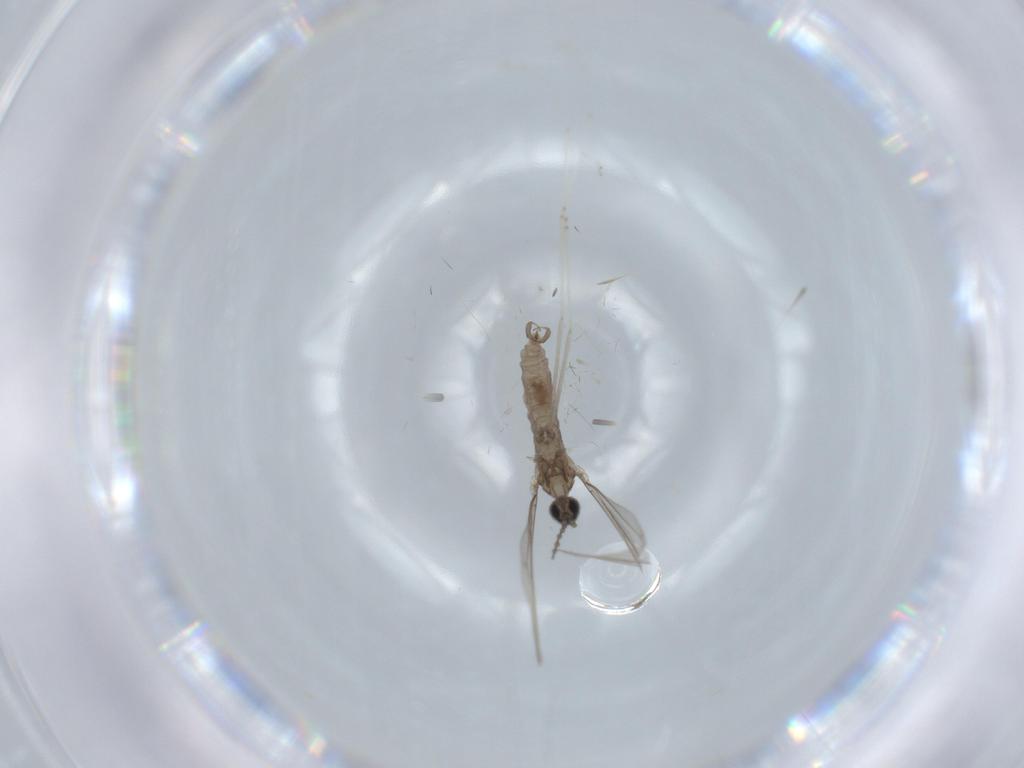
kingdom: Animalia
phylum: Arthropoda
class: Insecta
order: Diptera
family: Cecidomyiidae
